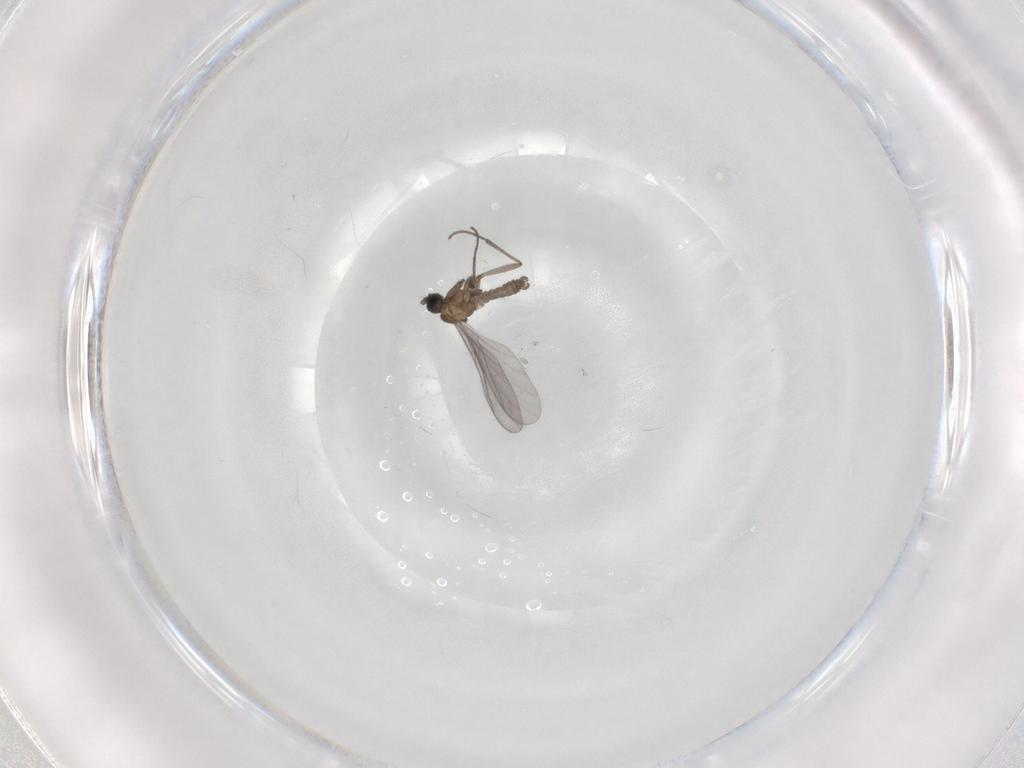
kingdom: Animalia
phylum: Arthropoda
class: Insecta
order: Diptera
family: Sciaridae
